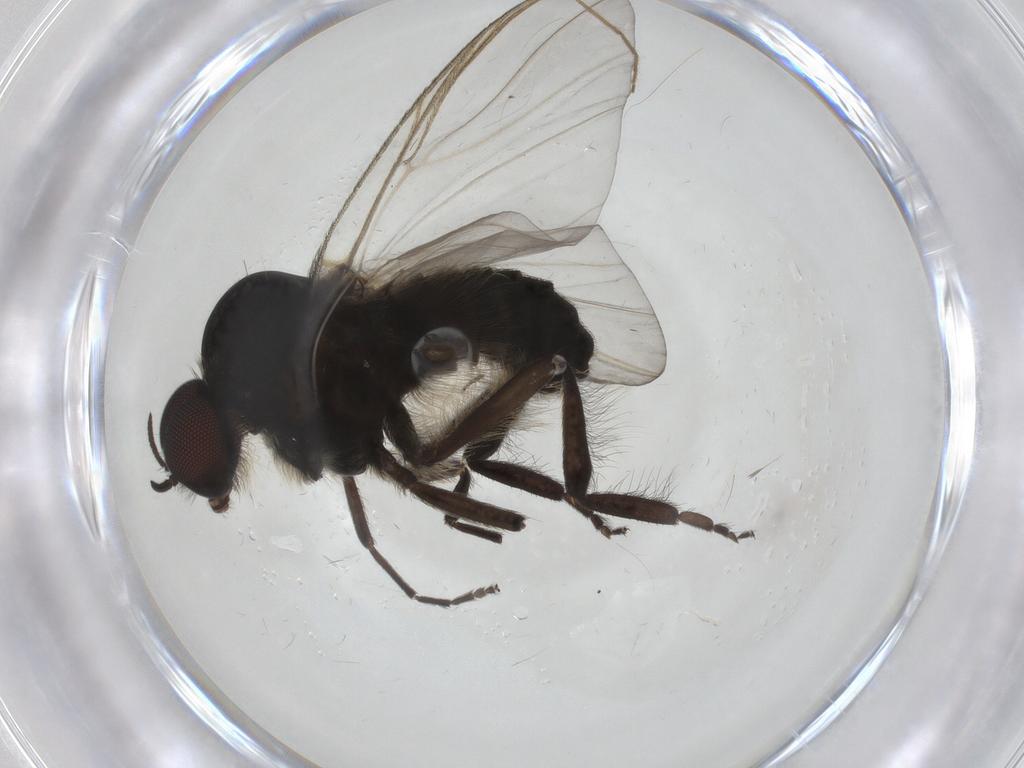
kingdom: Animalia
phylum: Arthropoda
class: Insecta
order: Diptera
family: Simuliidae
